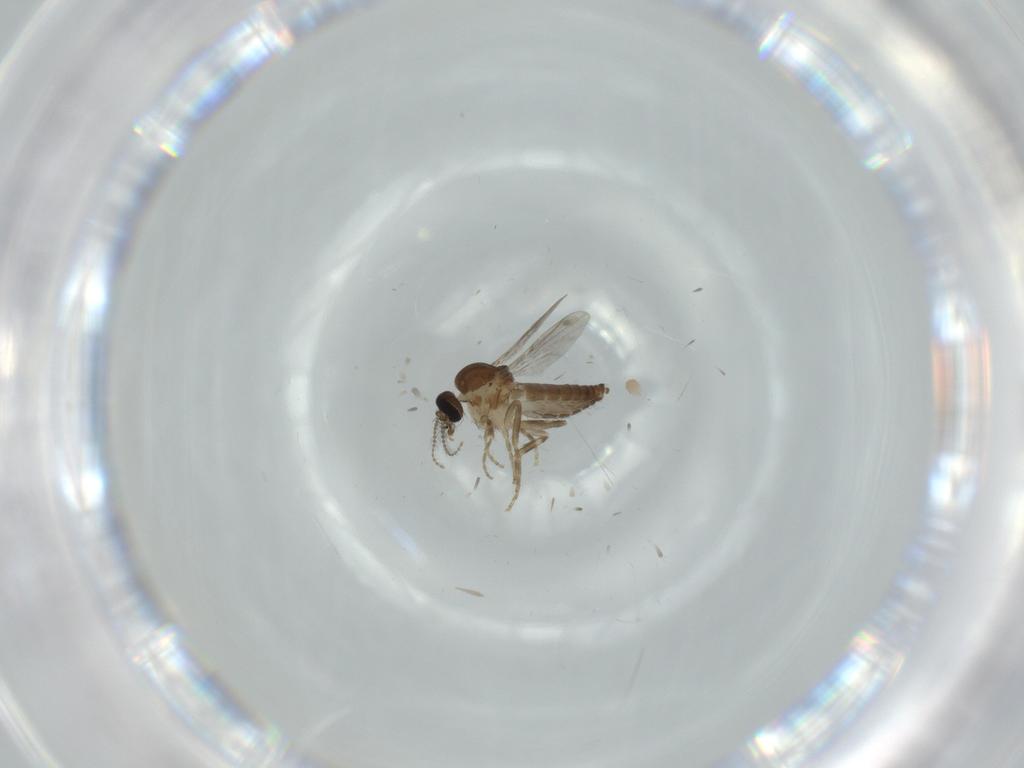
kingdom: Animalia
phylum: Arthropoda
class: Insecta
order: Diptera
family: Ceratopogonidae
